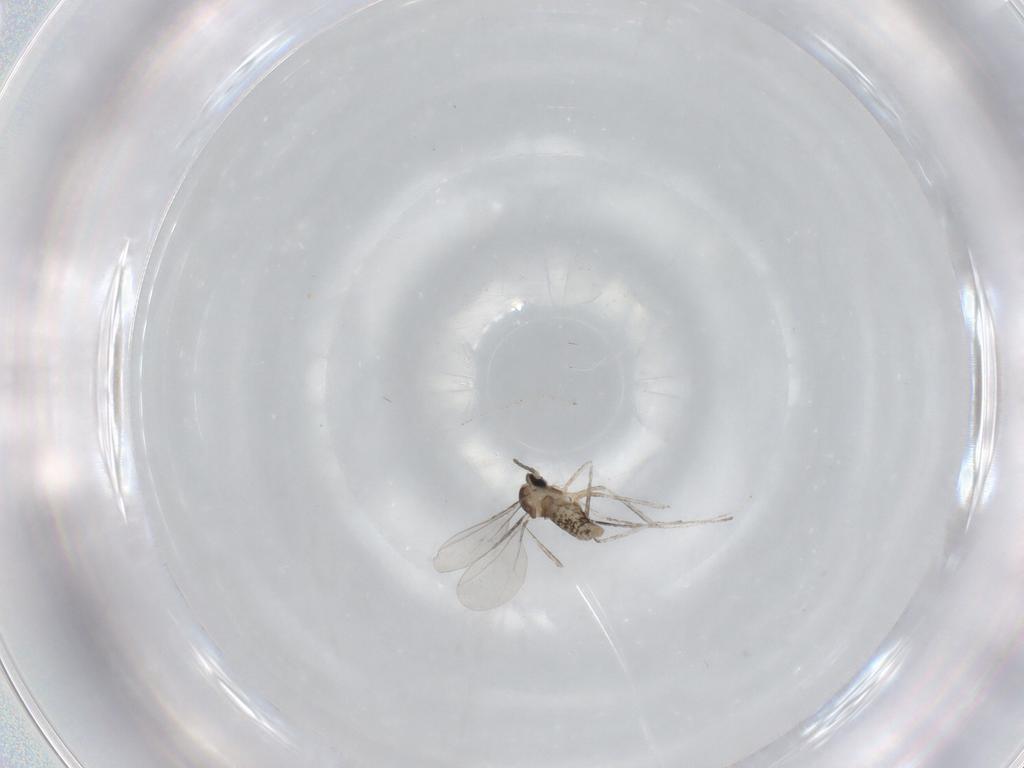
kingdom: Animalia
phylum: Arthropoda
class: Insecta
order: Diptera
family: Cecidomyiidae
